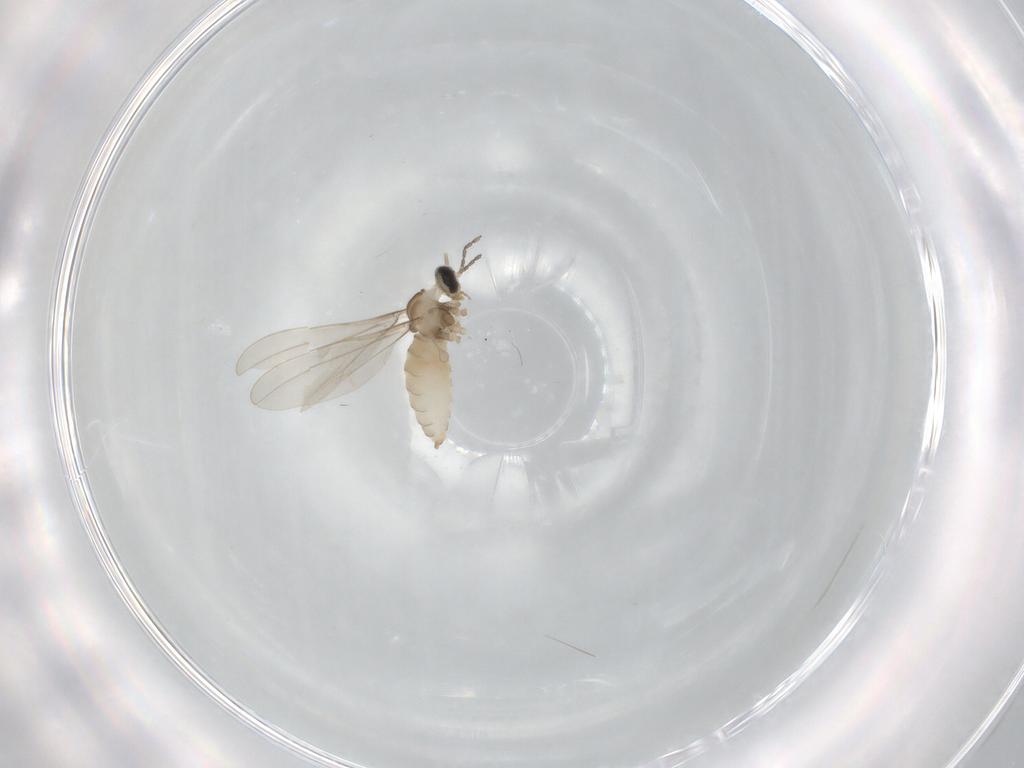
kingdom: Animalia
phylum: Arthropoda
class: Insecta
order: Diptera
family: Cecidomyiidae
